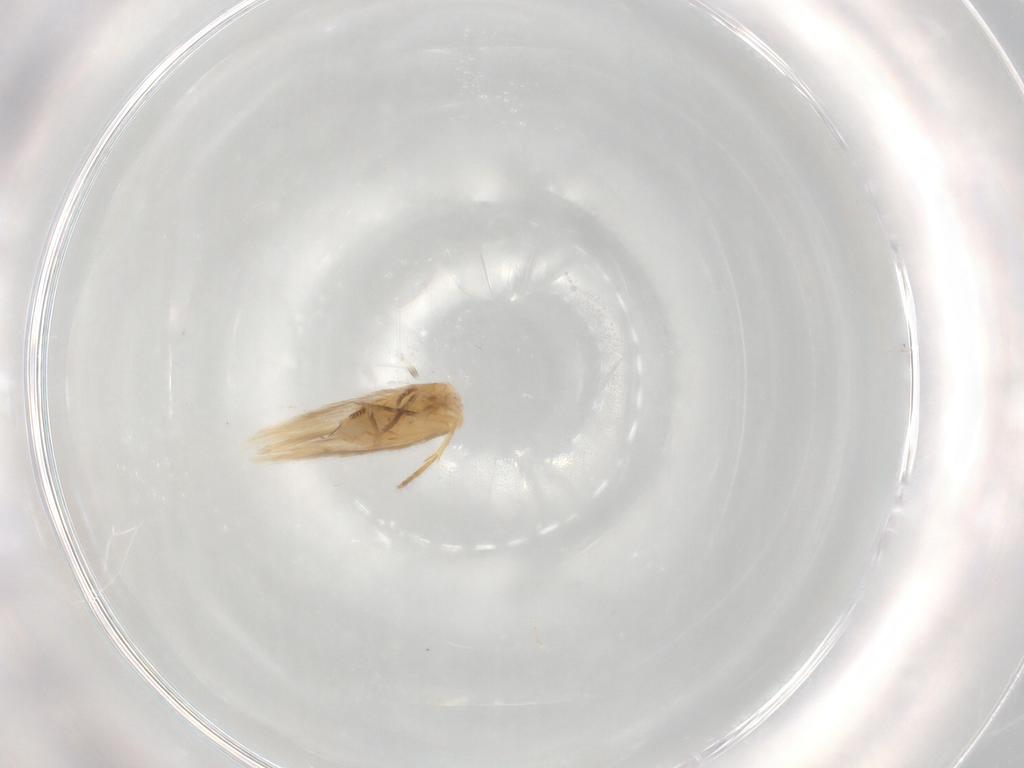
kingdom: Animalia
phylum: Arthropoda
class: Insecta
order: Lepidoptera
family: Nepticulidae
